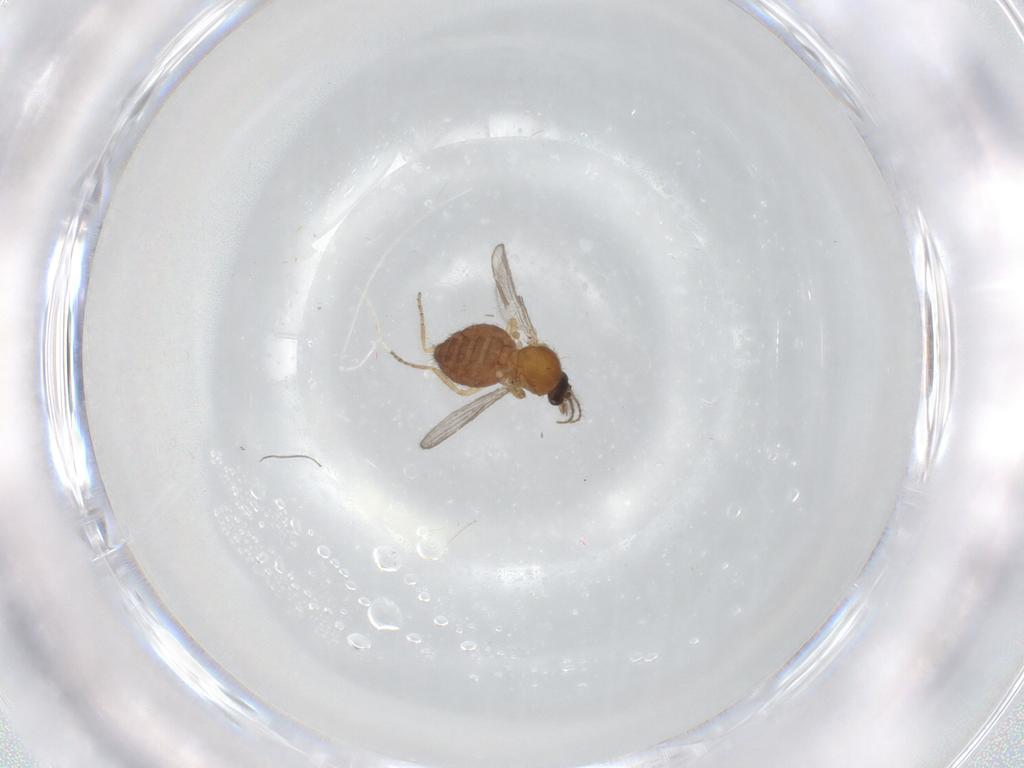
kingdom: Animalia
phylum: Arthropoda
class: Insecta
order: Diptera
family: Ceratopogonidae
